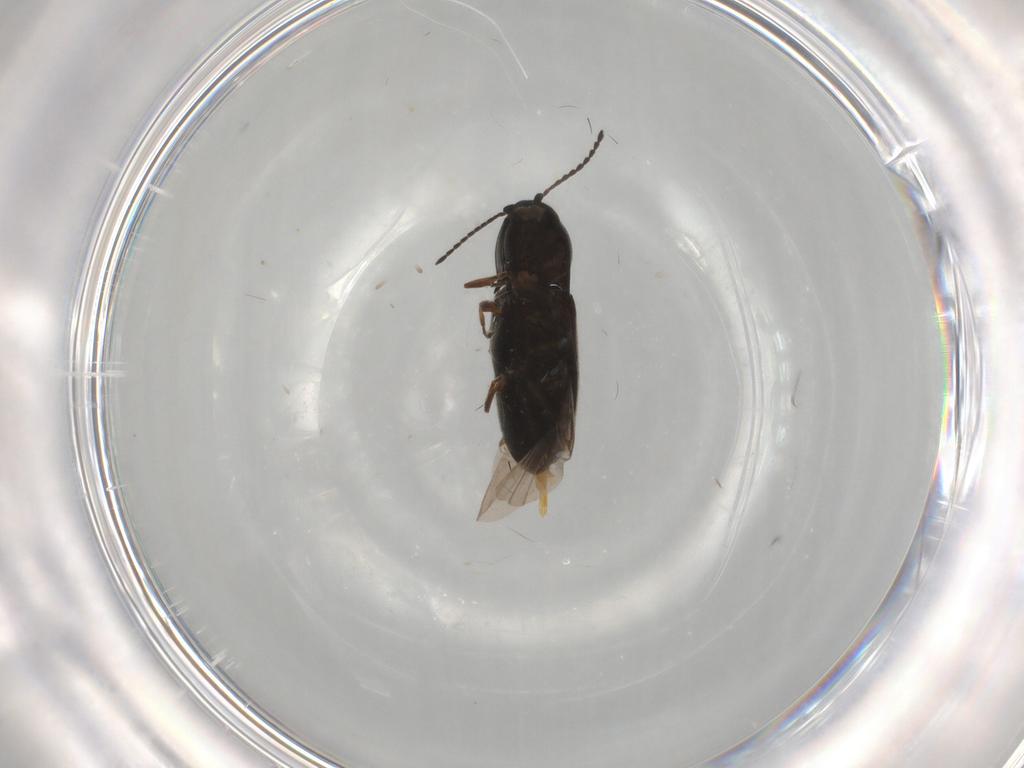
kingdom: Animalia
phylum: Arthropoda
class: Insecta
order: Coleoptera
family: Elateridae
